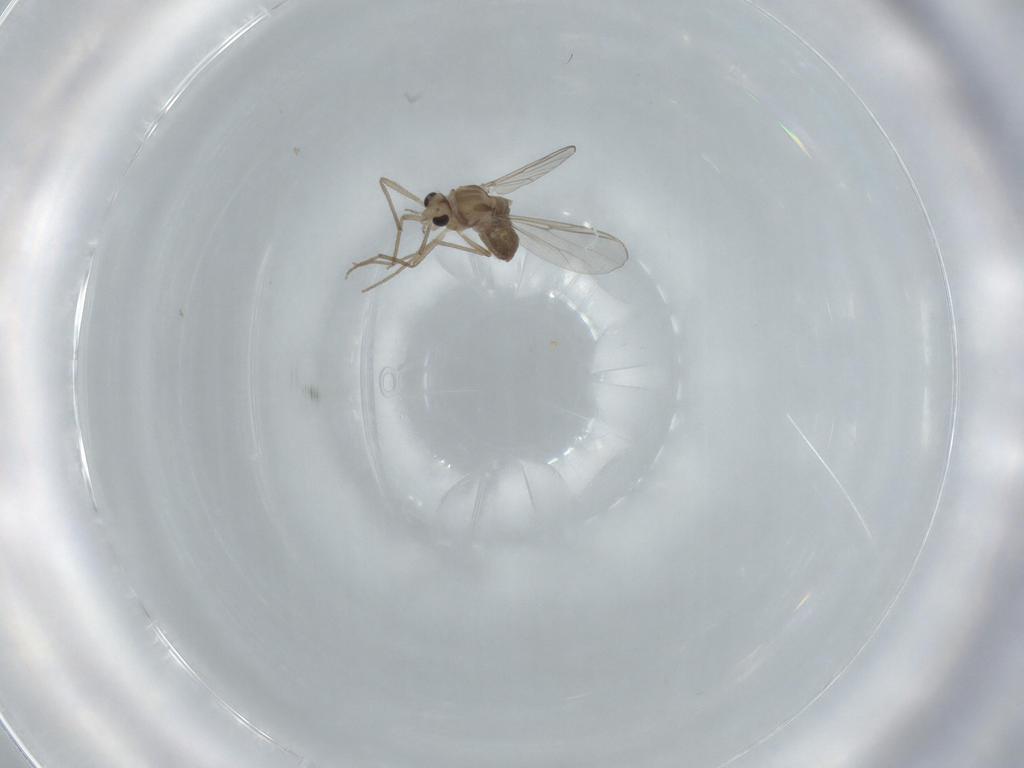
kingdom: Animalia
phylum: Arthropoda
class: Insecta
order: Diptera
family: Chironomidae
